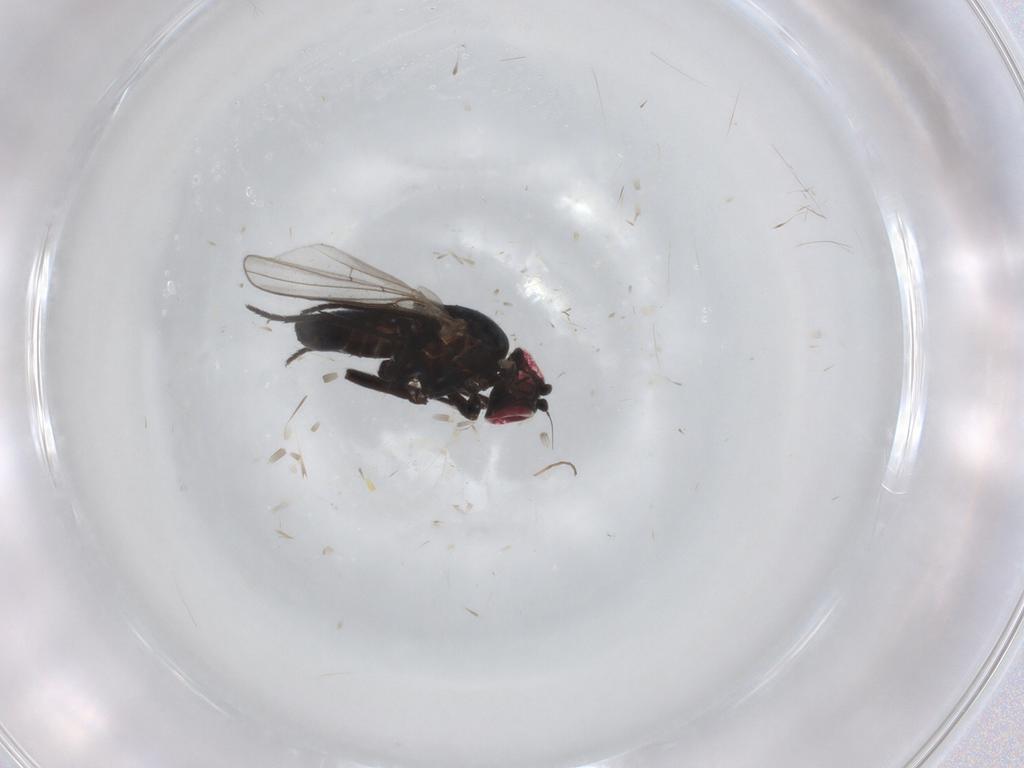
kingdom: Animalia
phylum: Arthropoda
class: Insecta
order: Diptera
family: Agromyzidae
